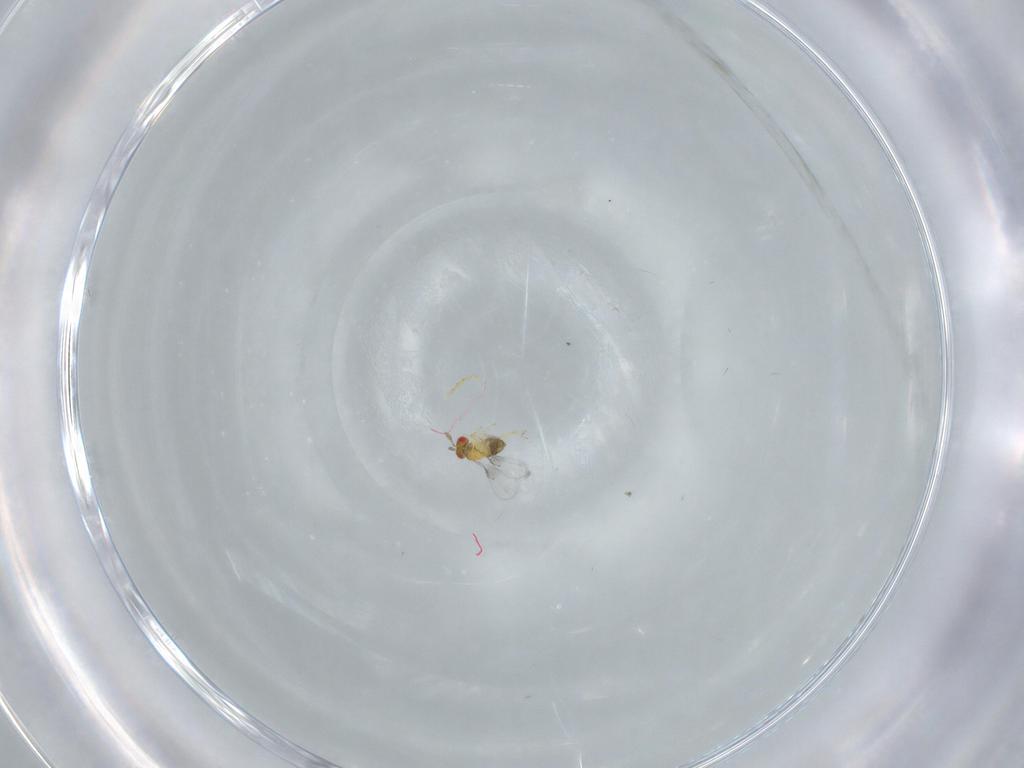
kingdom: Animalia
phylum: Arthropoda
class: Insecta
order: Hymenoptera
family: Trichogrammatidae
